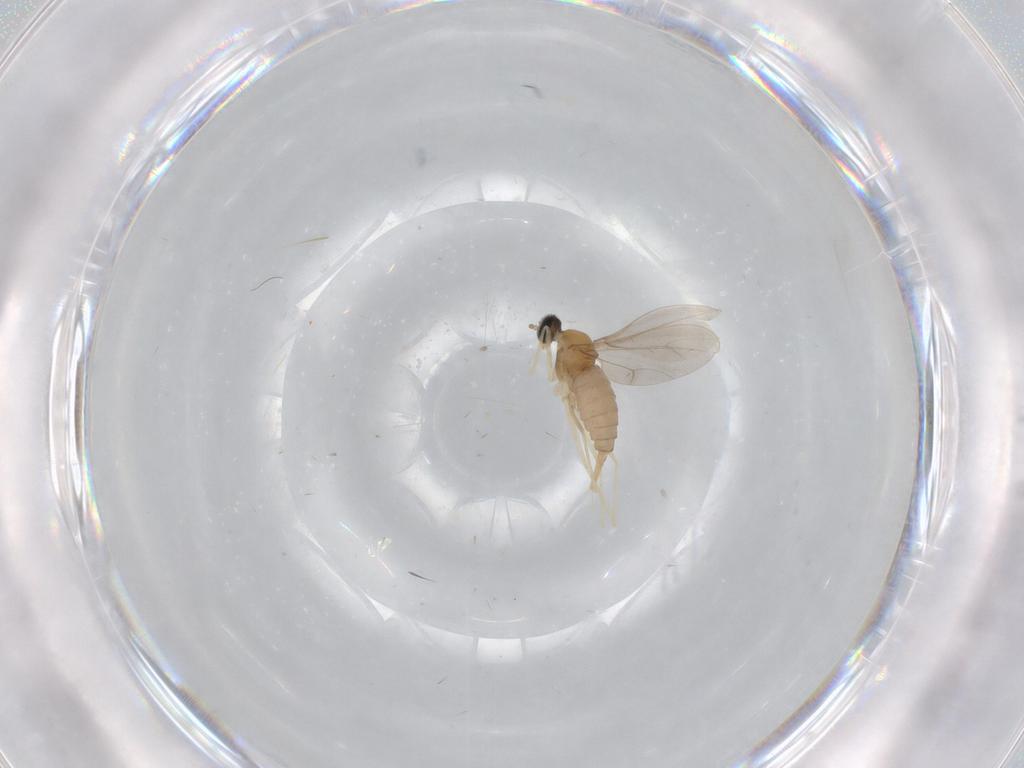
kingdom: Animalia
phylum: Arthropoda
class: Insecta
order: Diptera
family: Cecidomyiidae
